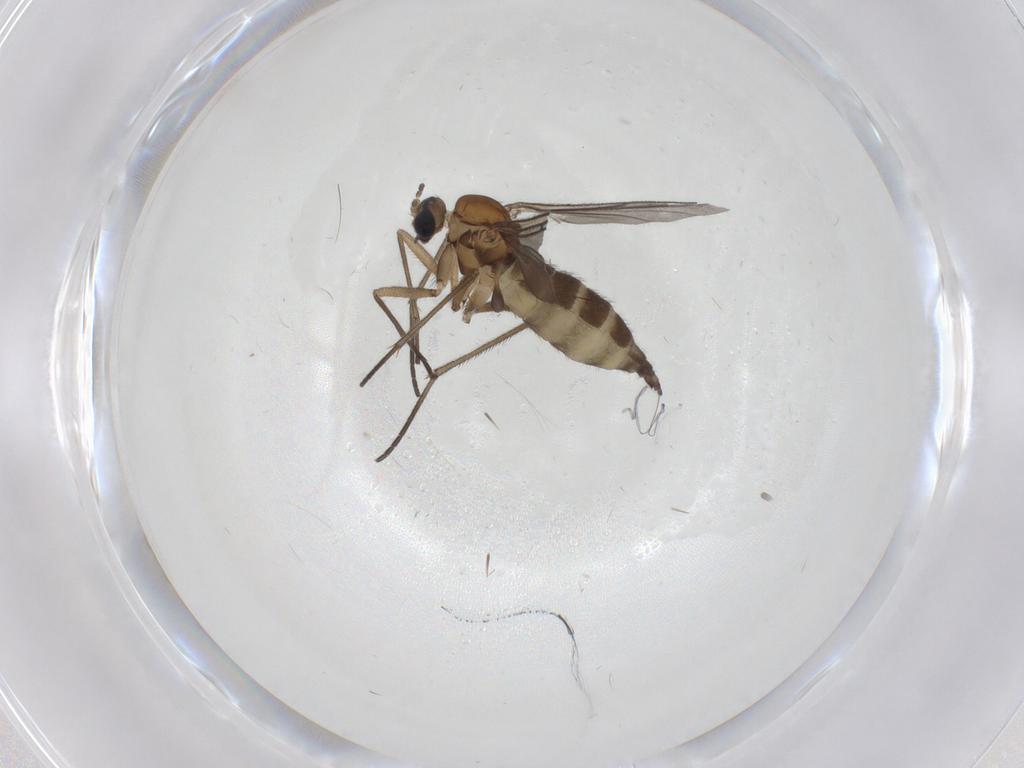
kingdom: Animalia
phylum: Arthropoda
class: Insecta
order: Diptera
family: Sciaridae
